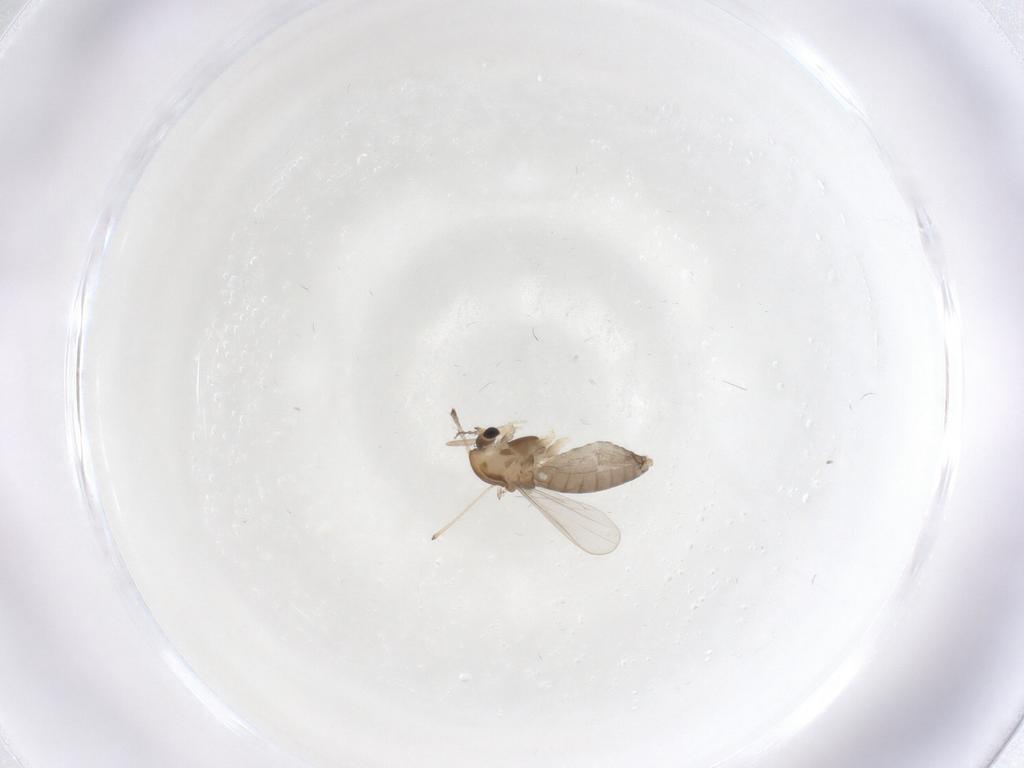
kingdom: Animalia
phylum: Arthropoda
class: Insecta
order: Diptera
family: Chironomidae
